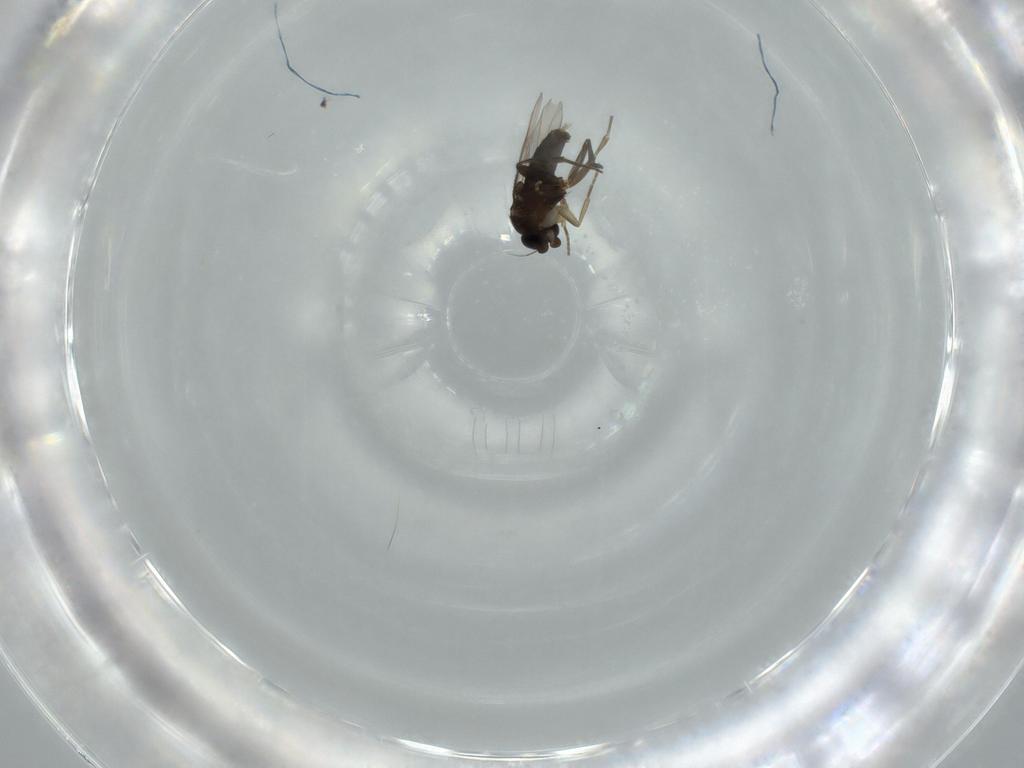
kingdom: Animalia
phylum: Arthropoda
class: Insecta
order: Diptera
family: Phoridae
